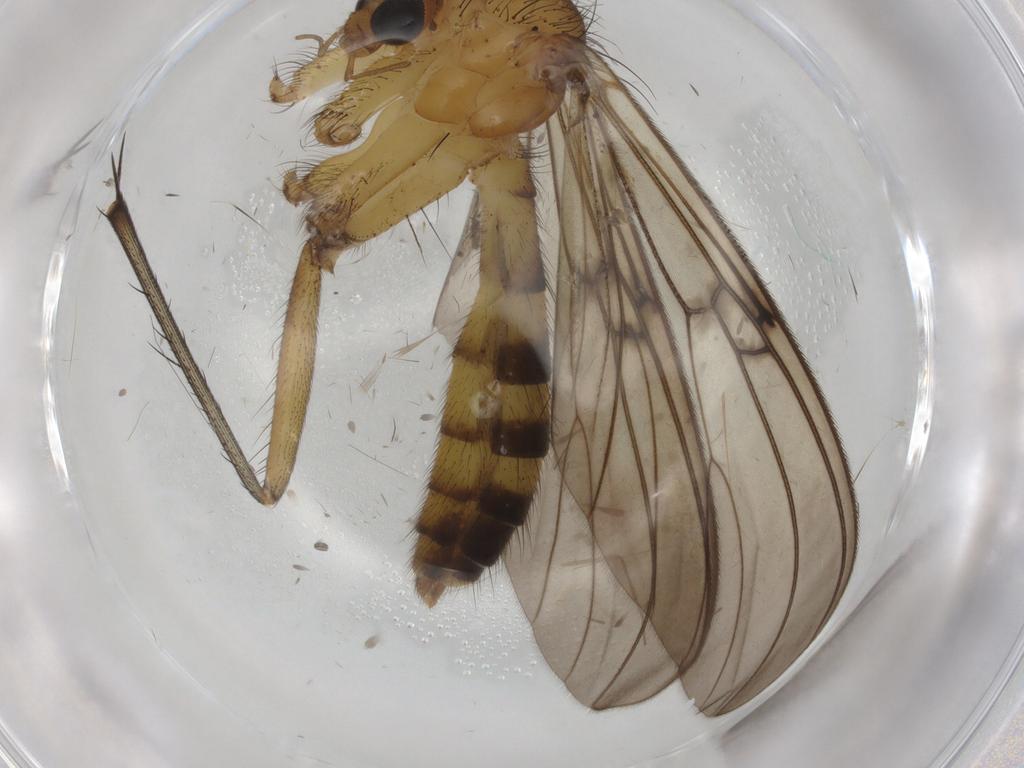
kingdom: Animalia
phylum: Arthropoda
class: Insecta
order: Diptera
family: Mycetophilidae
